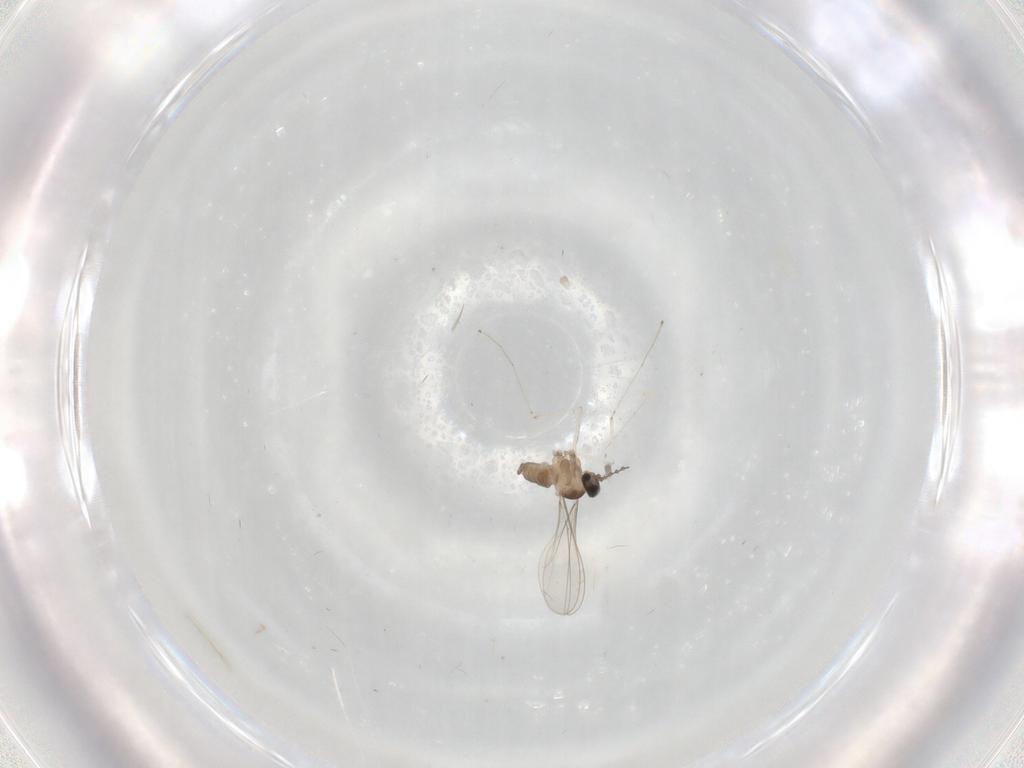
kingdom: Animalia
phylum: Arthropoda
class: Insecta
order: Diptera
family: Cecidomyiidae
